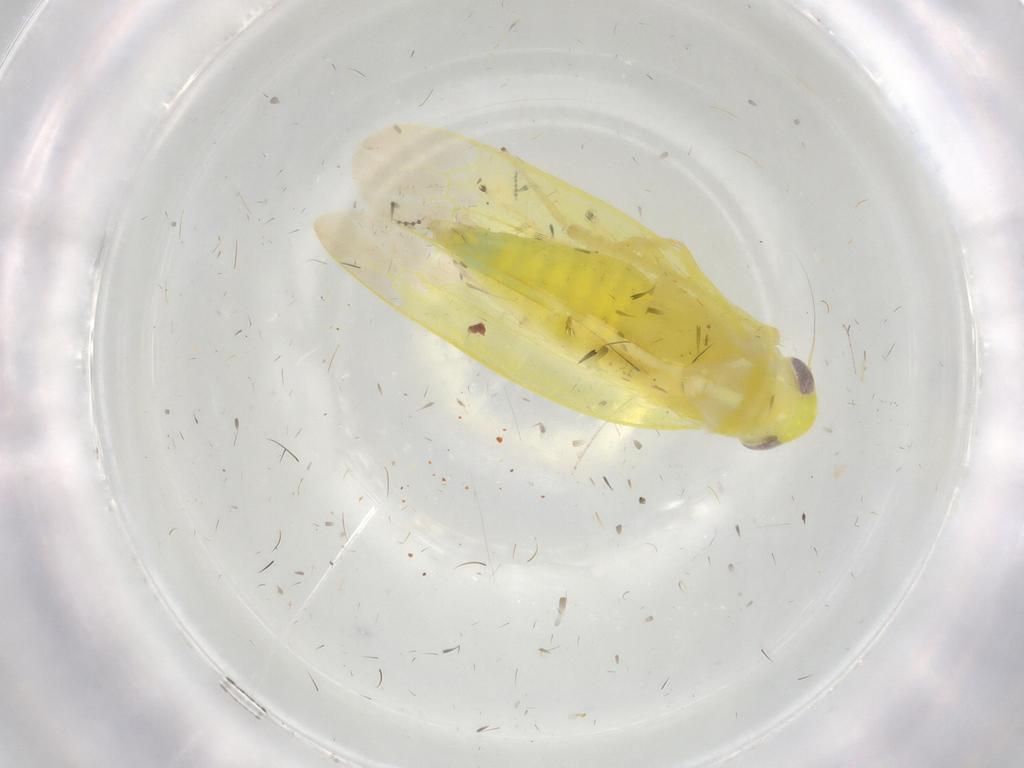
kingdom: Animalia
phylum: Arthropoda
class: Insecta
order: Hemiptera
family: Cicadellidae
